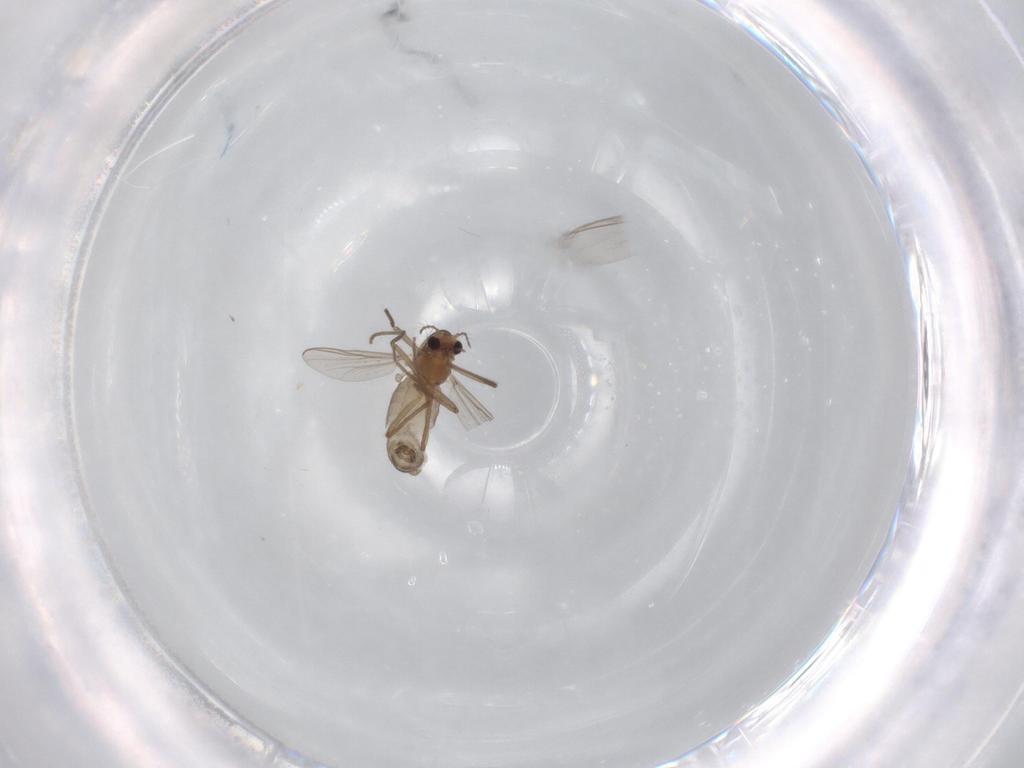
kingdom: Animalia
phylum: Arthropoda
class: Insecta
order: Diptera
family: Chironomidae
